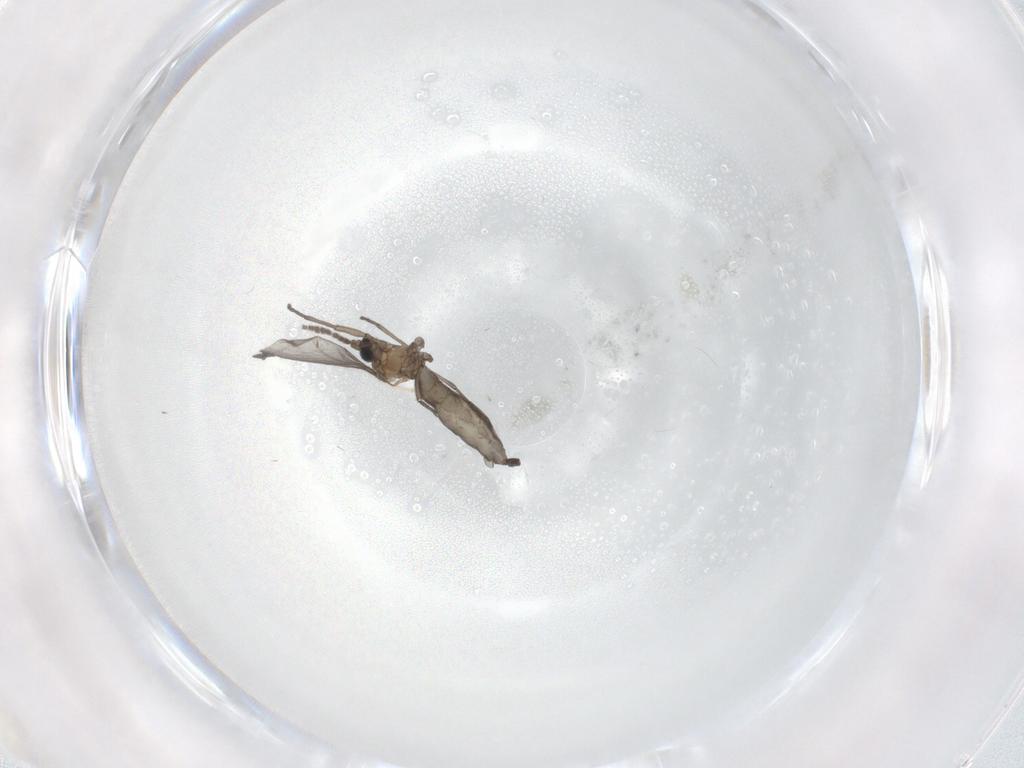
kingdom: Animalia
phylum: Arthropoda
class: Insecta
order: Diptera
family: Sciaridae
